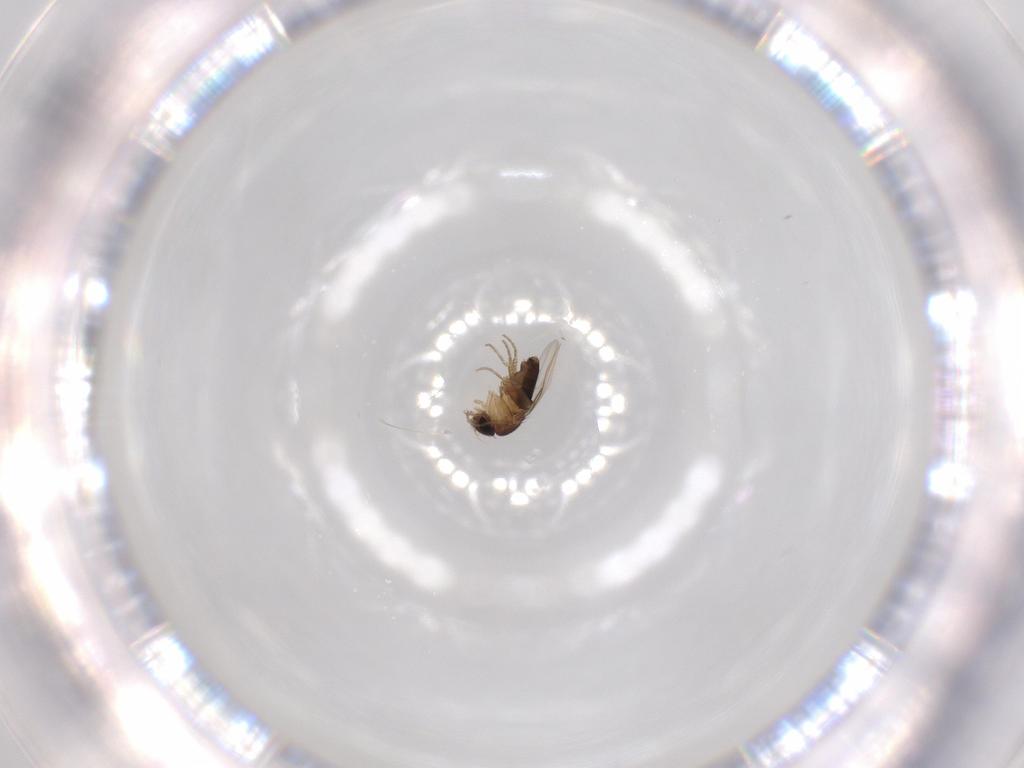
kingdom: Animalia
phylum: Arthropoda
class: Insecta
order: Diptera
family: Phoridae
